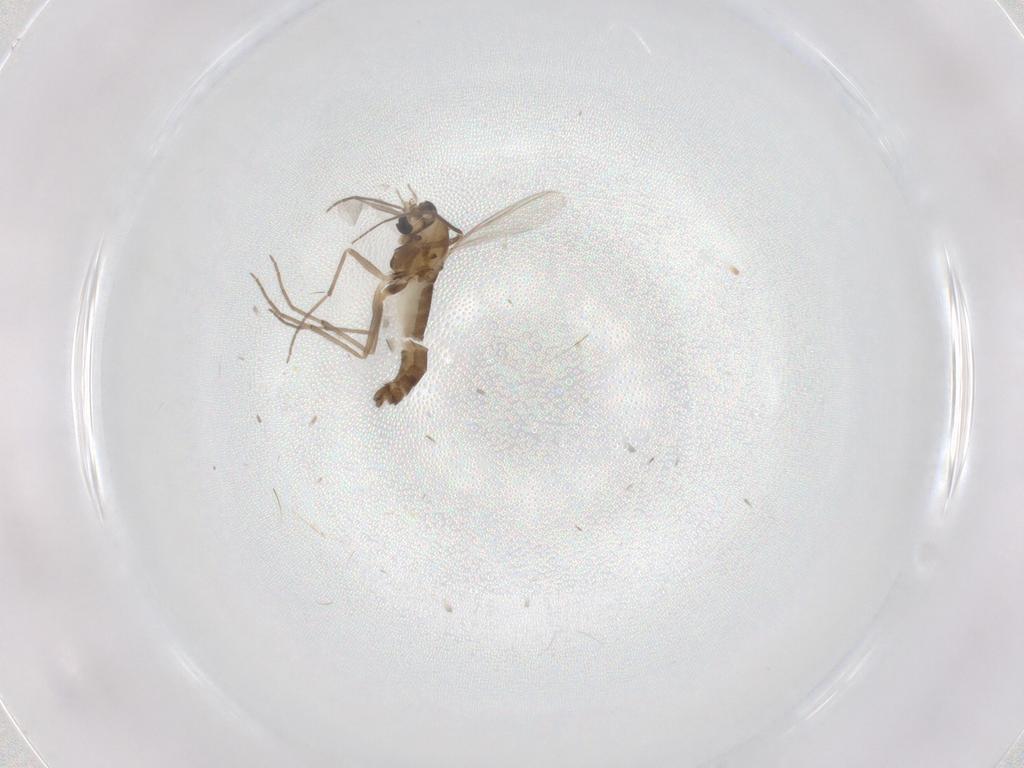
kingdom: Animalia
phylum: Arthropoda
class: Insecta
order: Diptera
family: Chironomidae
